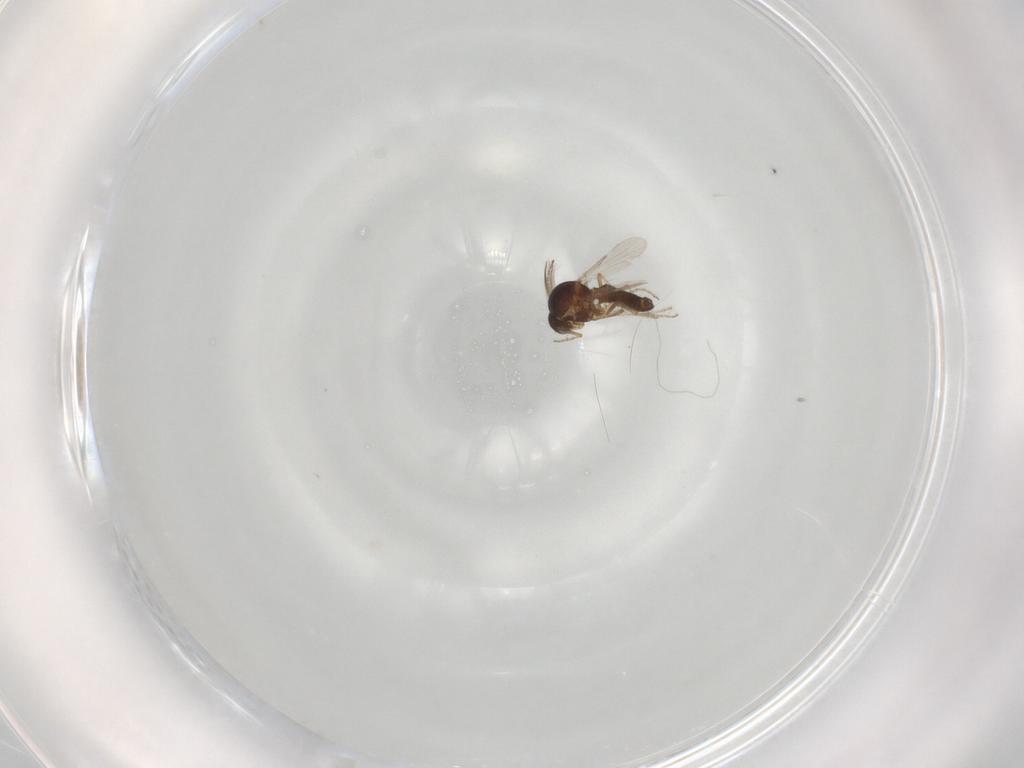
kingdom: Animalia
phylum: Arthropoda
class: Insecta
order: Diptera
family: Ceratopogonidae
